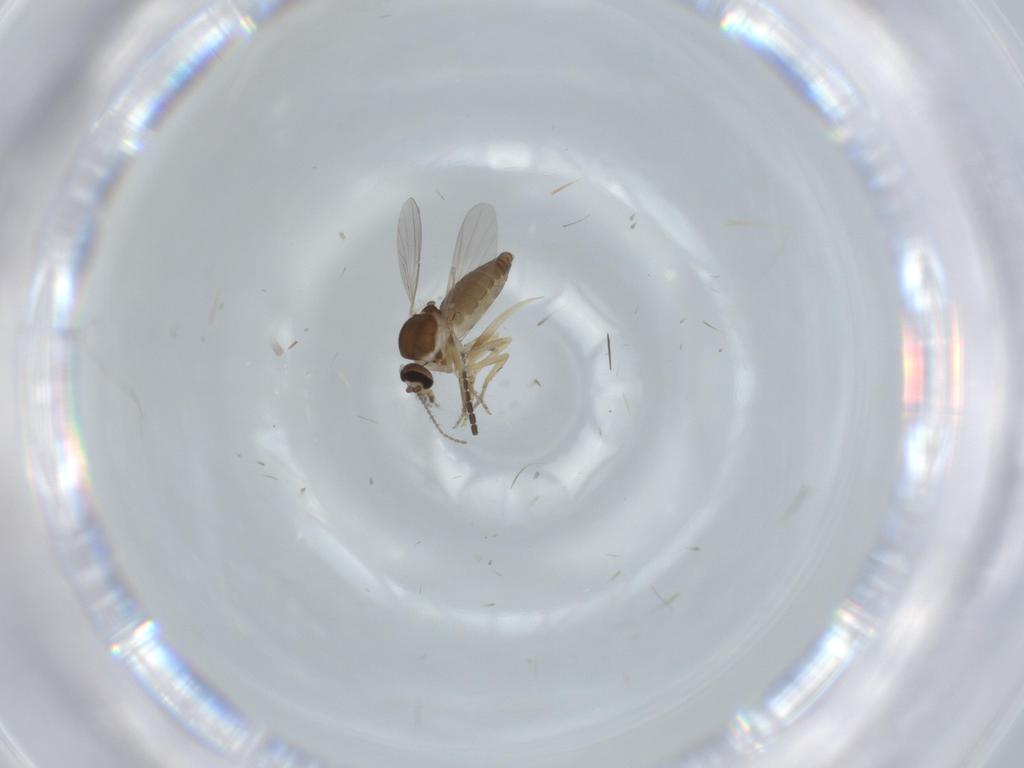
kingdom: Animalia
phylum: Arthropoda
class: Insecta
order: Diptera
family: Ceratopogonidae
